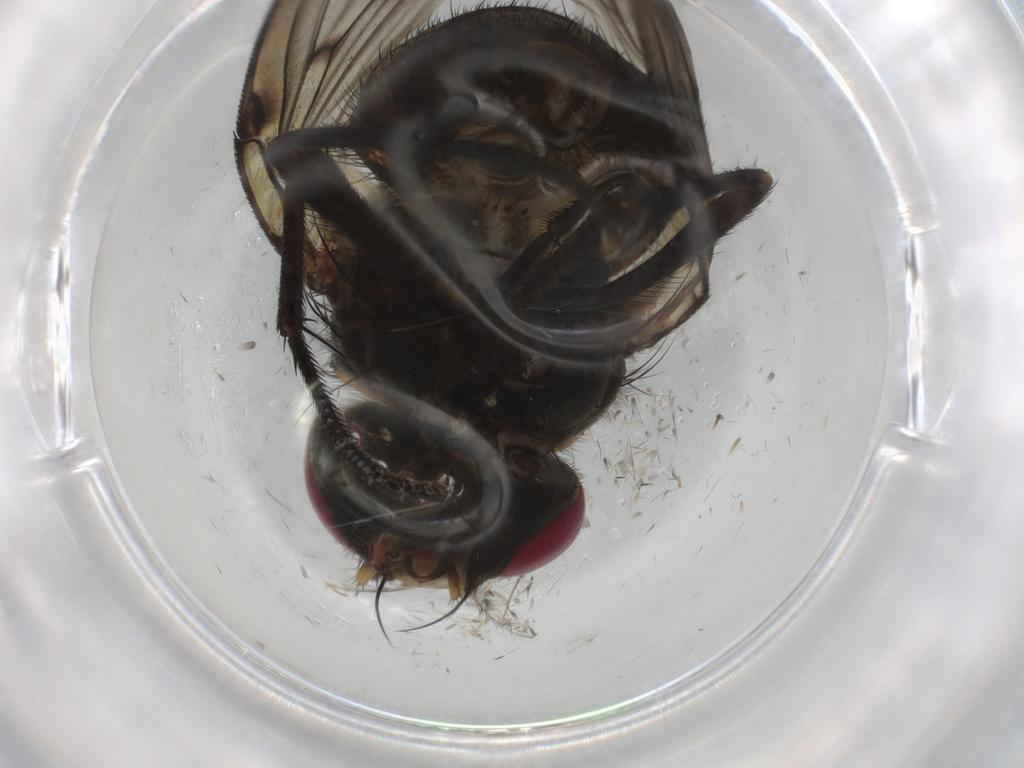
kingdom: Animalia
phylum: Arthropoda
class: Insecta
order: Diptera
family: Muscidae
